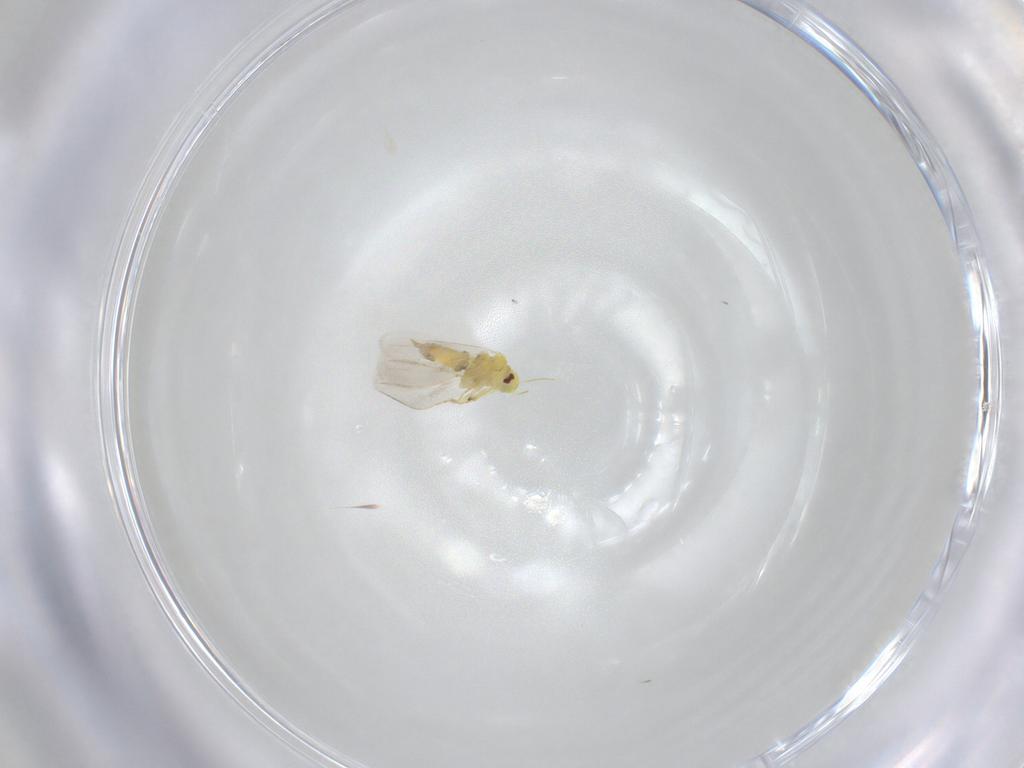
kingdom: Animalia
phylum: Arthropoda
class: Insecta
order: Hemiptera
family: Aleyrodidae
